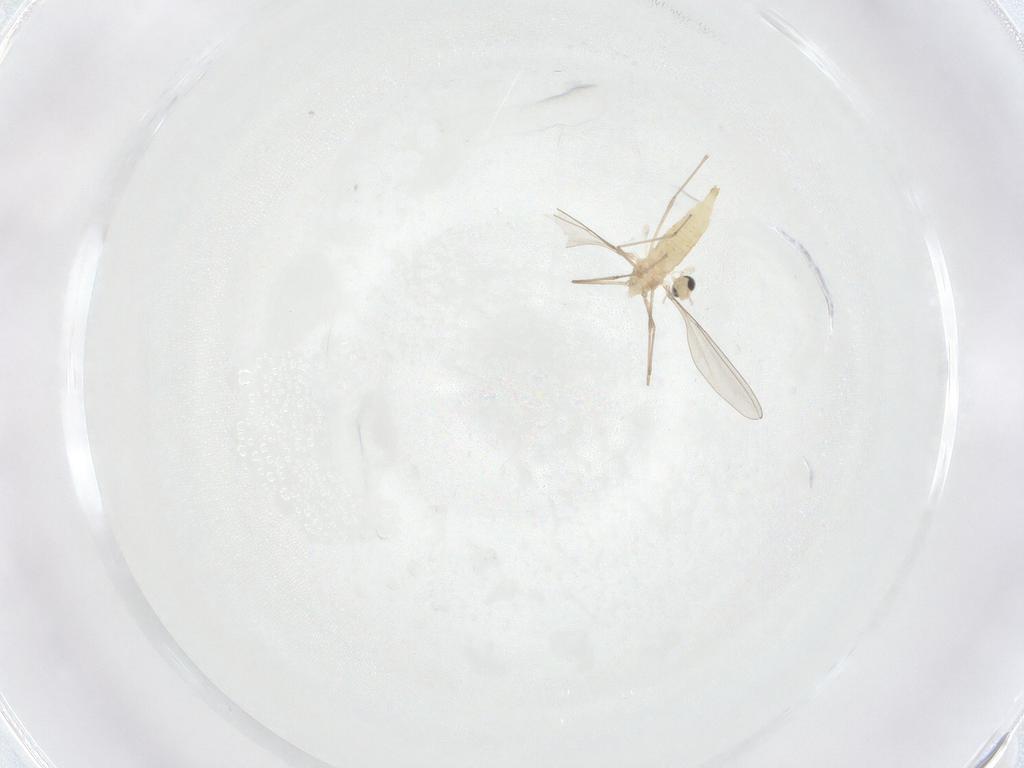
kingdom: Animalia
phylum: Arthropoda
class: Insecta
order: Diptera
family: Cecidomyiidae
